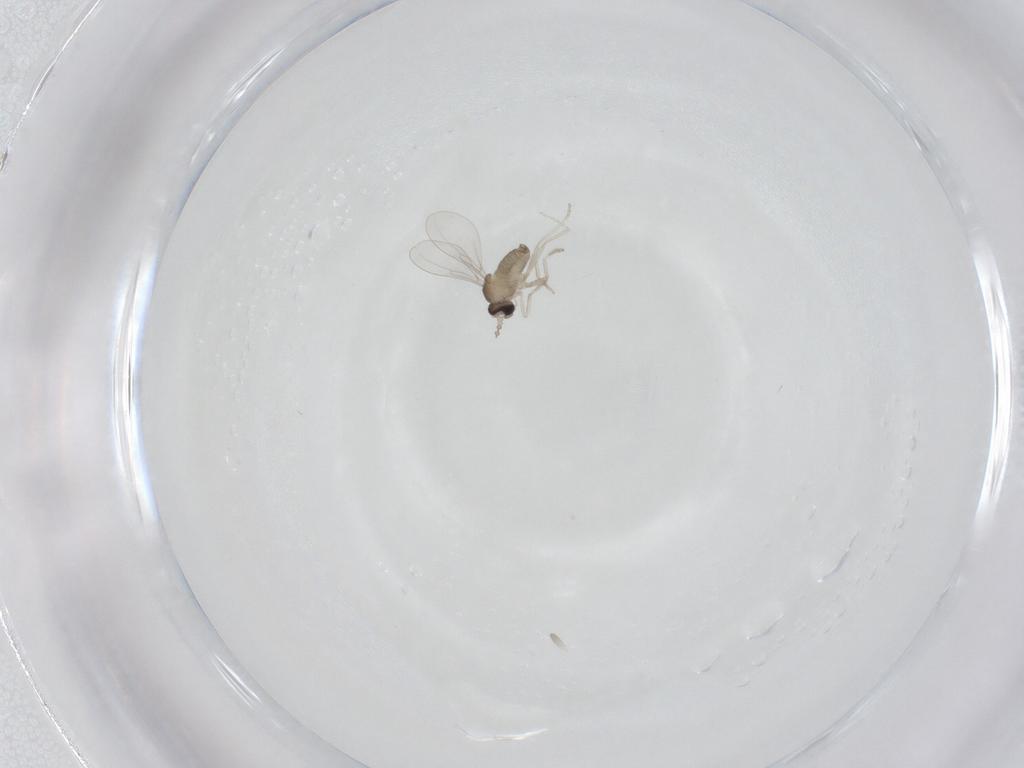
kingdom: Animalia
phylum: Arthropoda
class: Insecta
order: Diptera
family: Cecidomyiidae
